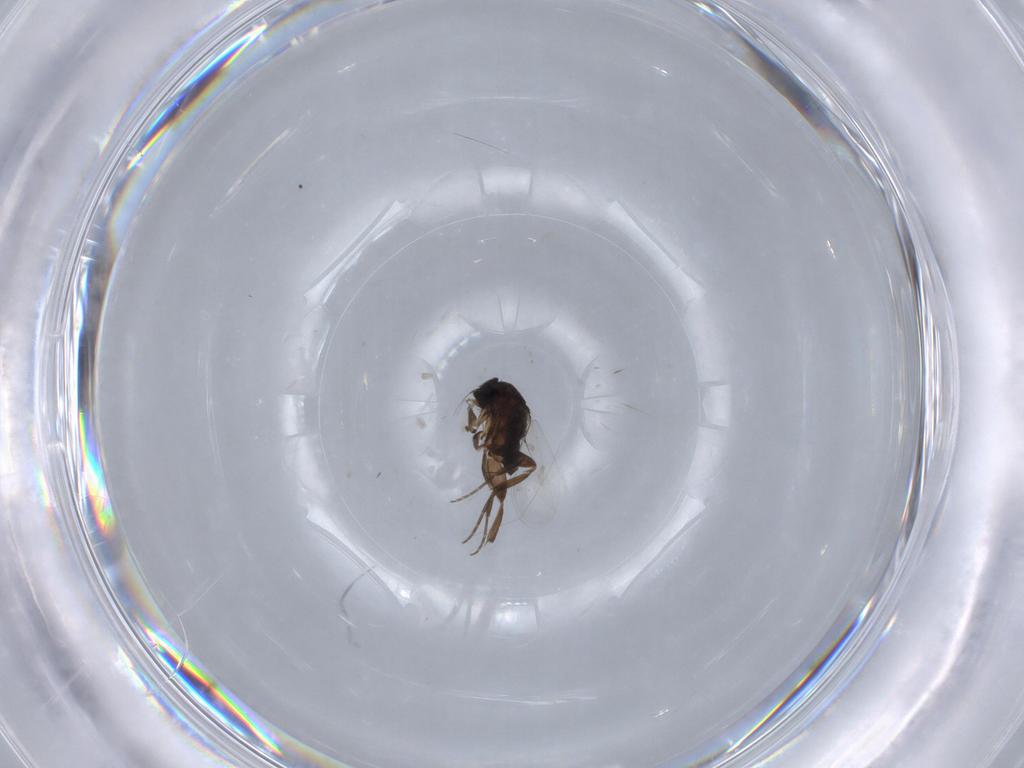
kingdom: Animalia
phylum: Arthropoda
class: Insecta
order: Diptera
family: Phoridae
